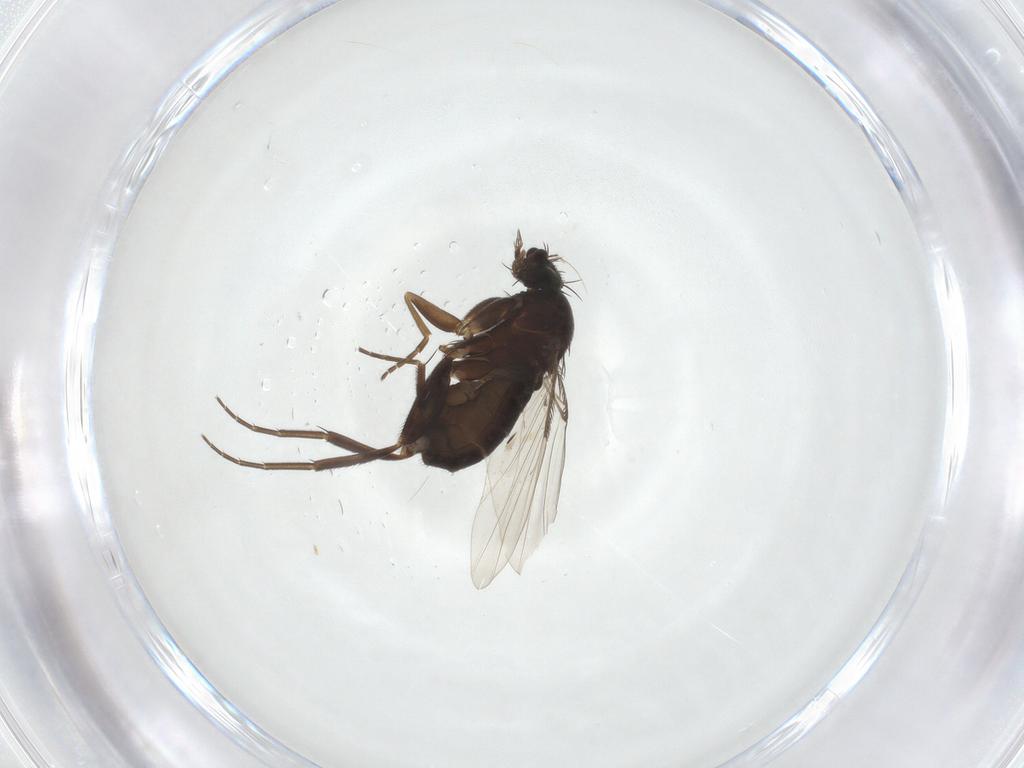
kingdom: Animalia
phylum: Arthropoda
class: Insecta
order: Diptera
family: Phoridae
